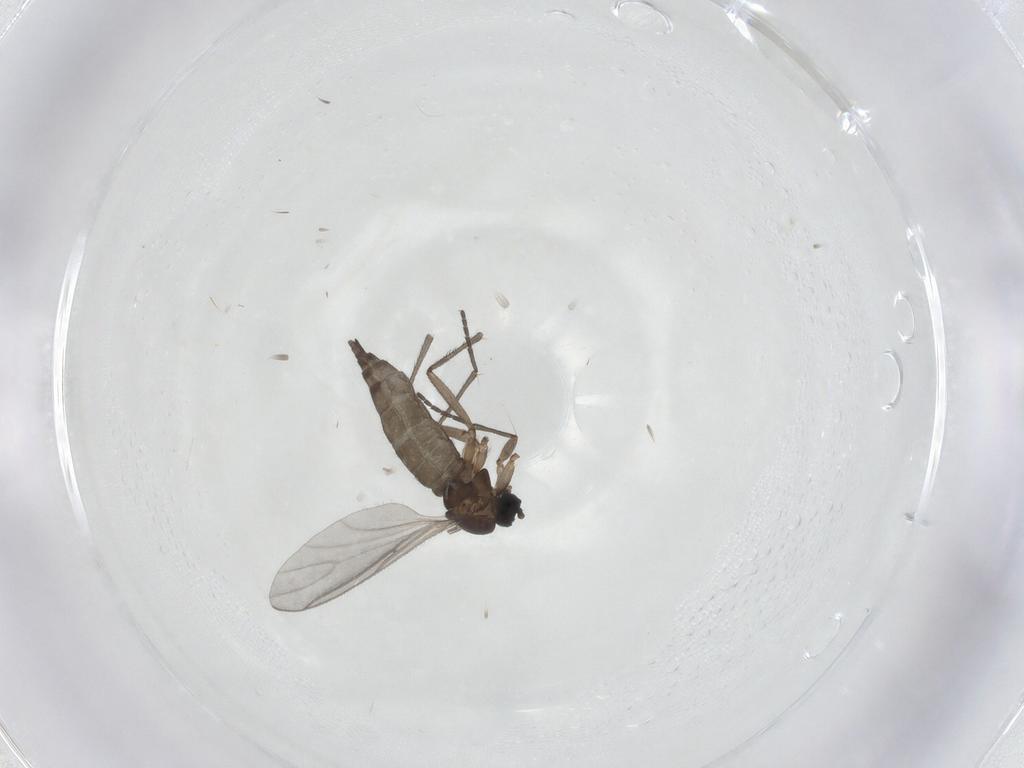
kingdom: Animalia
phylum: Arthropoda
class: Insecta
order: Diptera
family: Sciaridae
